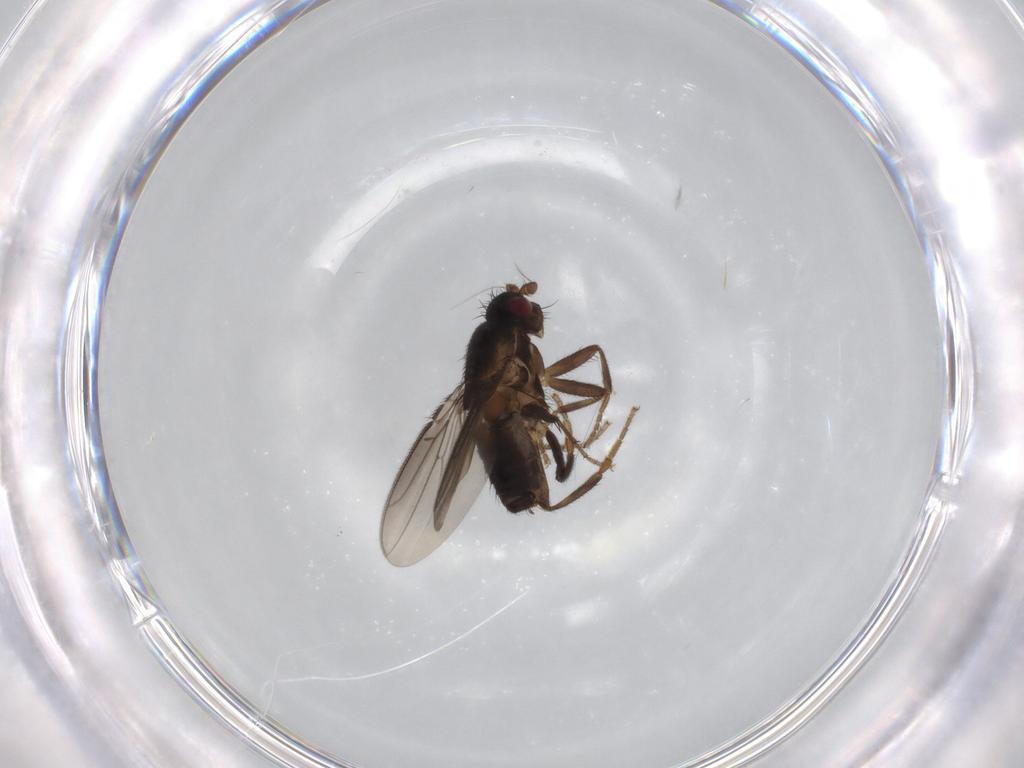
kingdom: Animalia
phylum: Arthropoda
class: Insecta
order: Diptera
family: Sphaeroceridae
